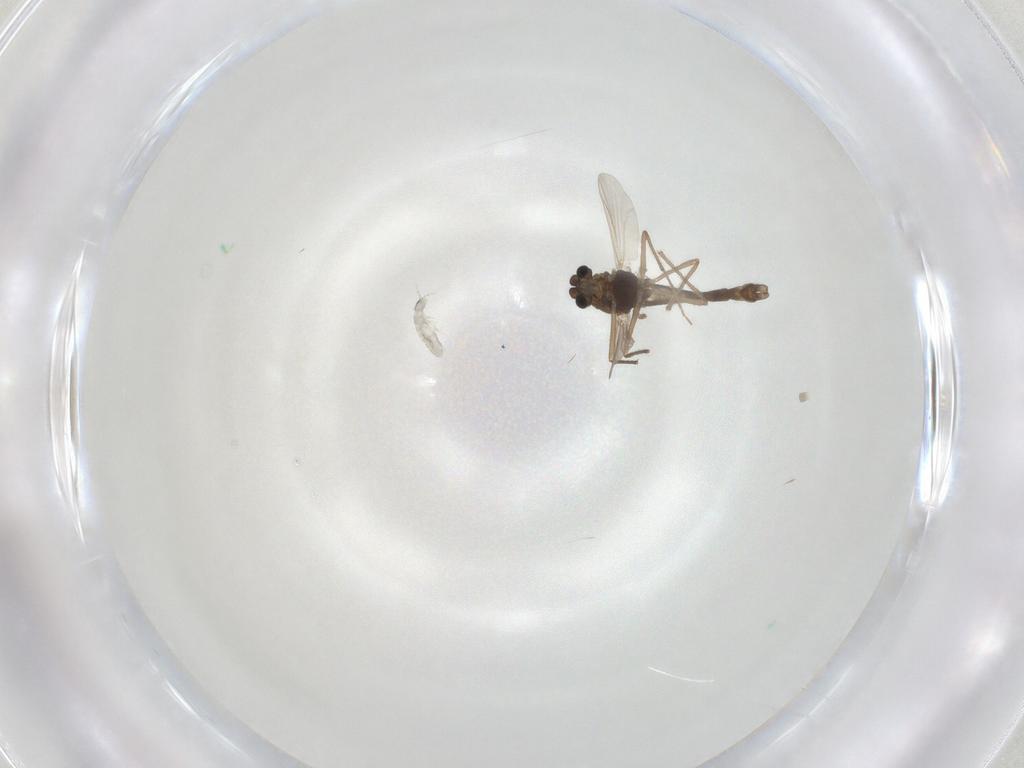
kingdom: Animalia
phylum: Arthropoda
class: Insecta
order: Diptera
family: Chironomidae
